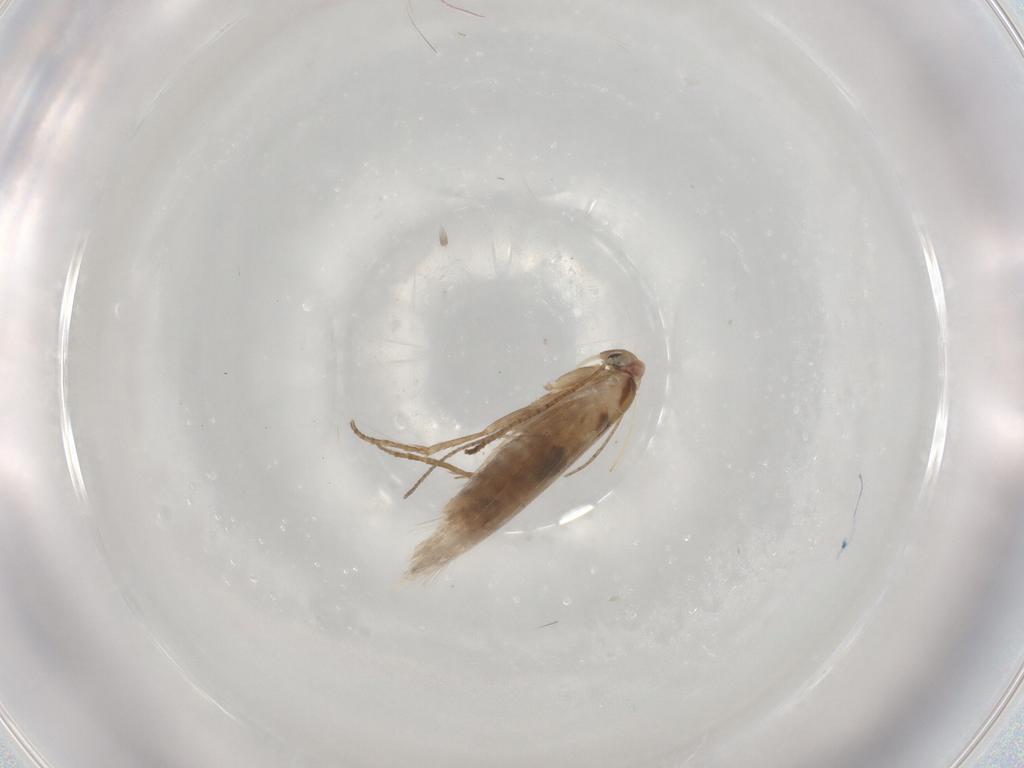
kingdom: Animalia
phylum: Arthropoda
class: Insecta
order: Lepidoptera
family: Bucculatricidae
